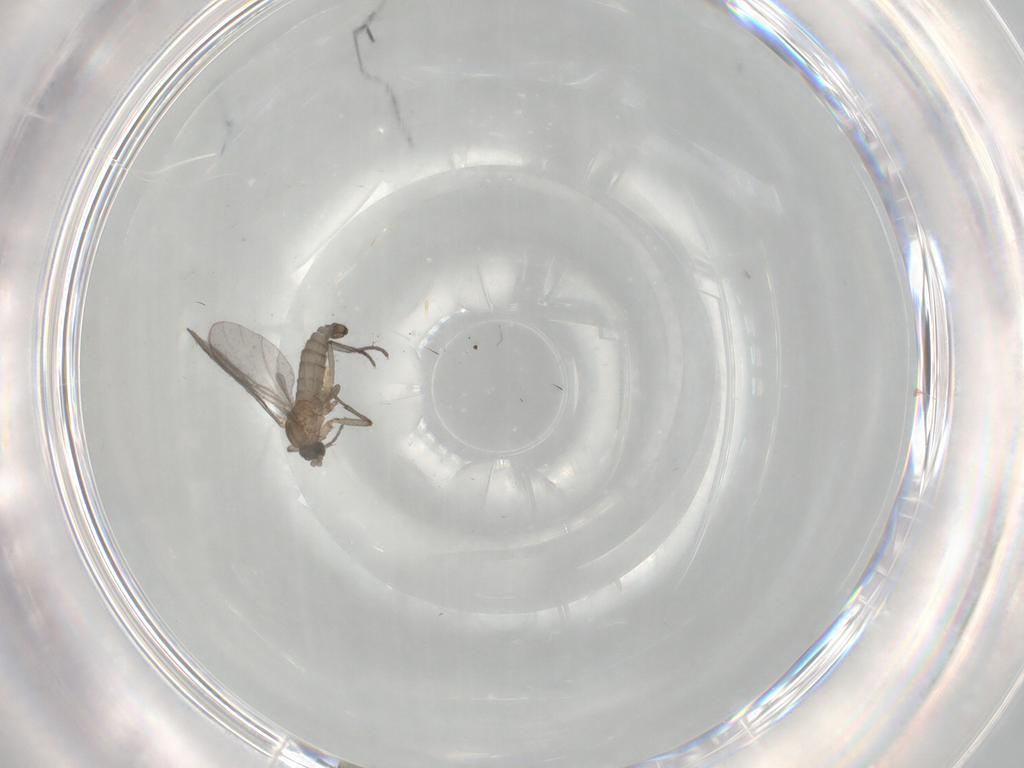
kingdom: Animalia
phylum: Arthropoda
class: Insecta
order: Diptera
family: Sciaridae
